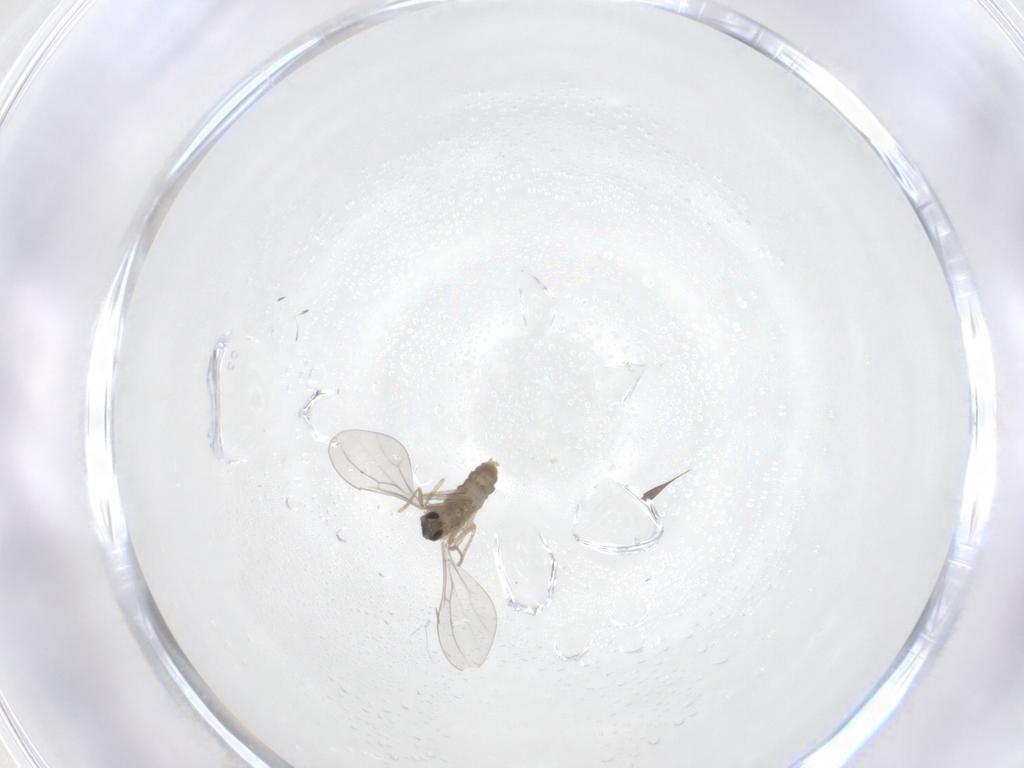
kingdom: Animalia
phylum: Arthropoda
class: Insecta
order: Diptera
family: Cecidomyiidae
